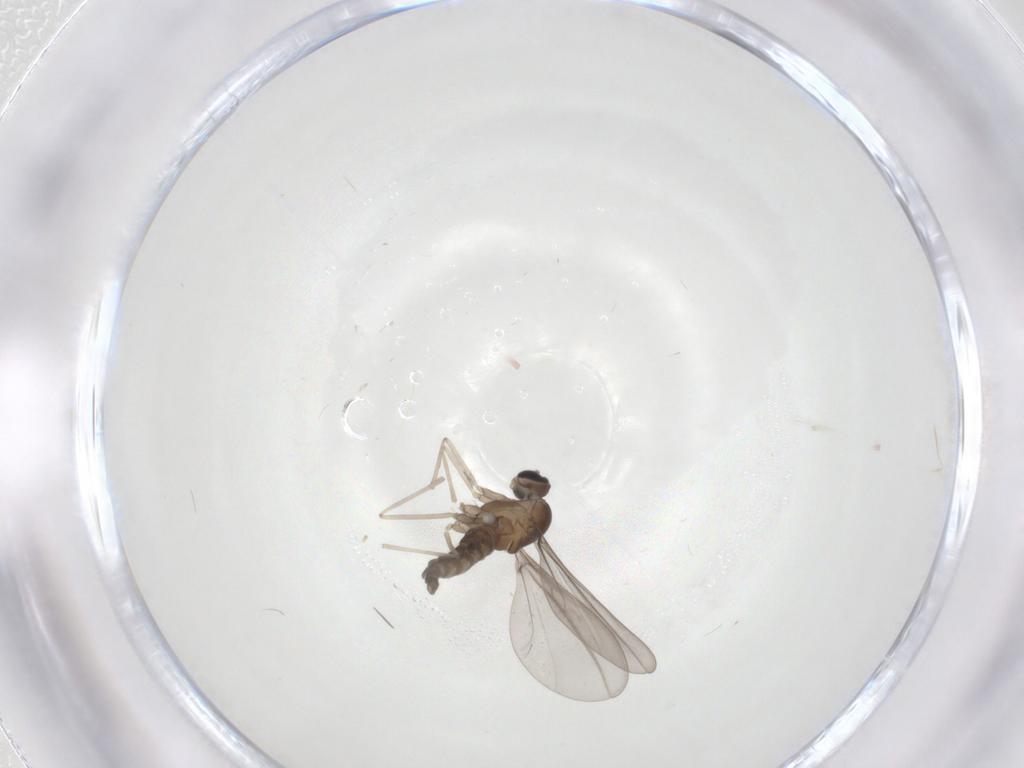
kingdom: Animalia
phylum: Arthropoda
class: Insecta
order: Diptera
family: Cecidomyiidae
